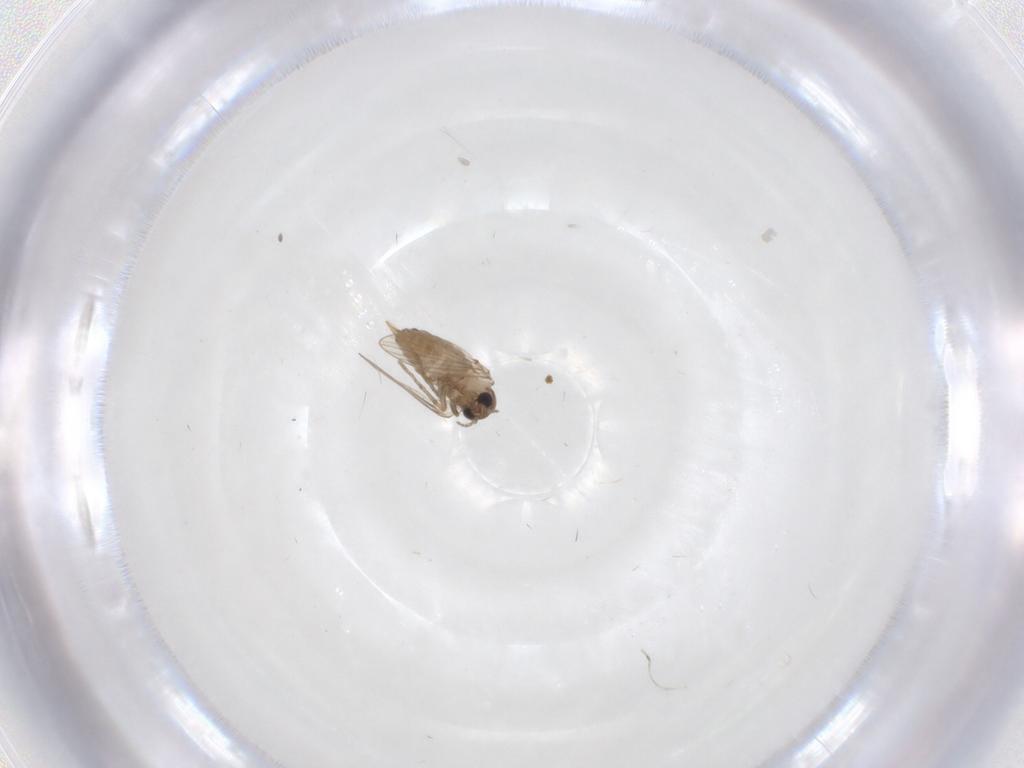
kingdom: Animalia
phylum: Arthropoda
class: Insecta
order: Diptera
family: Psychodidae
